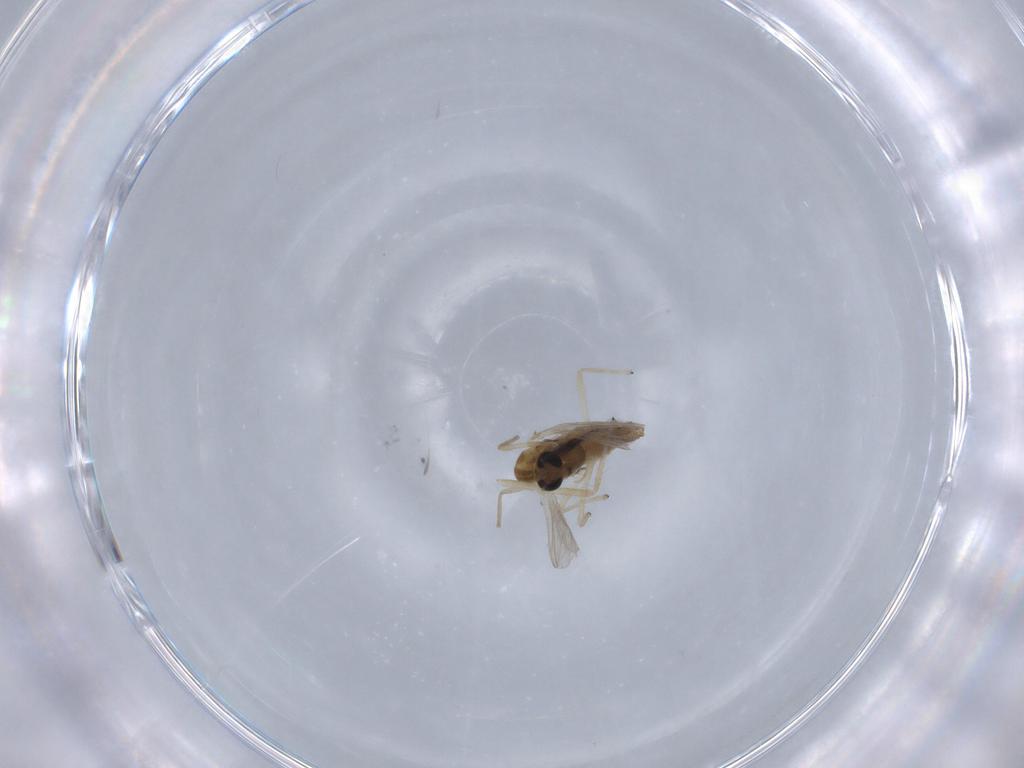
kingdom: Animalia
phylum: Arthropoda
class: Insecta
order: Diptera
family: Chironomidae
